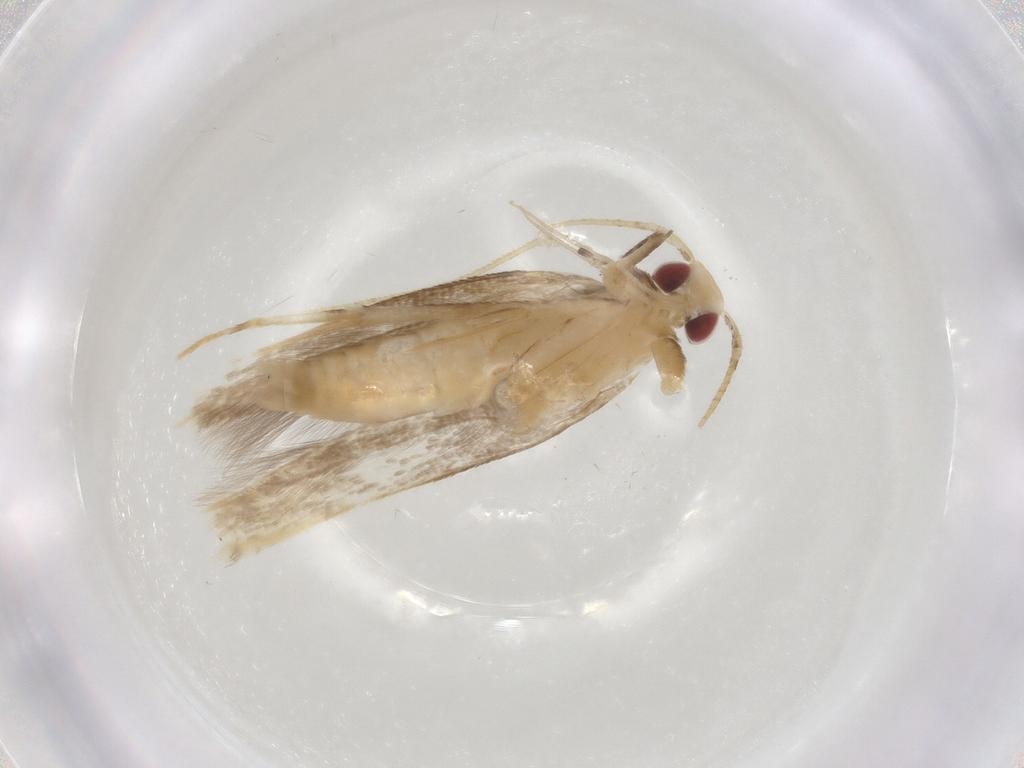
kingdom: Animalia
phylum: Arthropoda
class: Insecta
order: Lepidoptera
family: Cosmopterigidae
